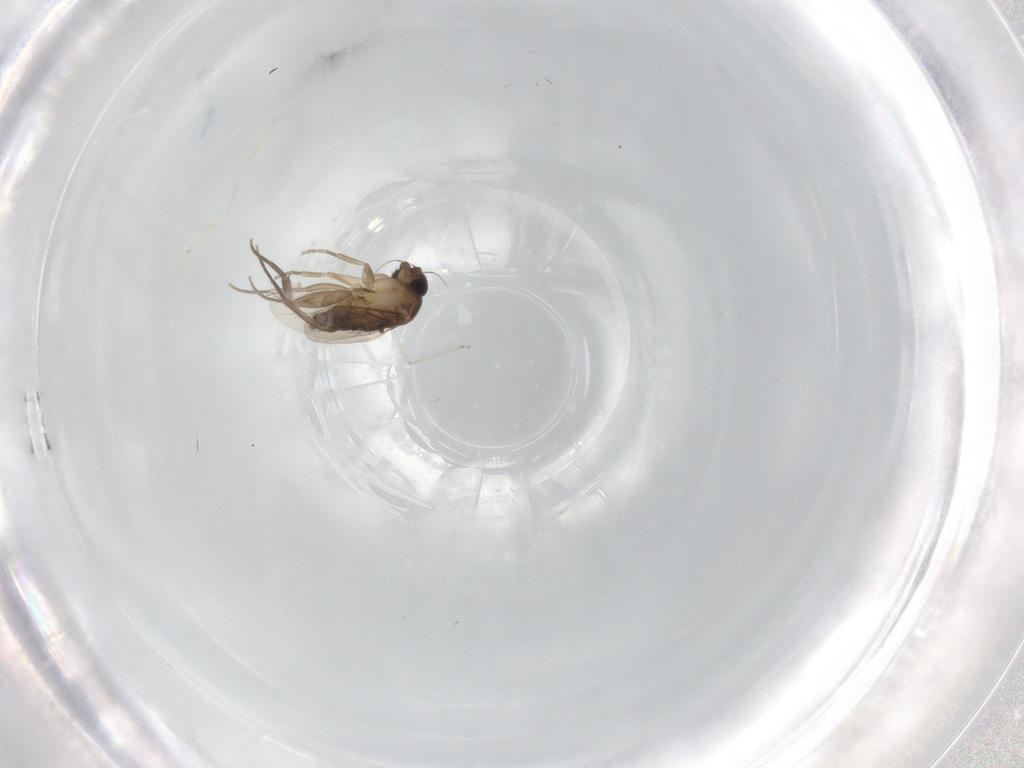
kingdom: Animalia
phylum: Arthropoda
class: Insecta
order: Diptera
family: Phoridae
